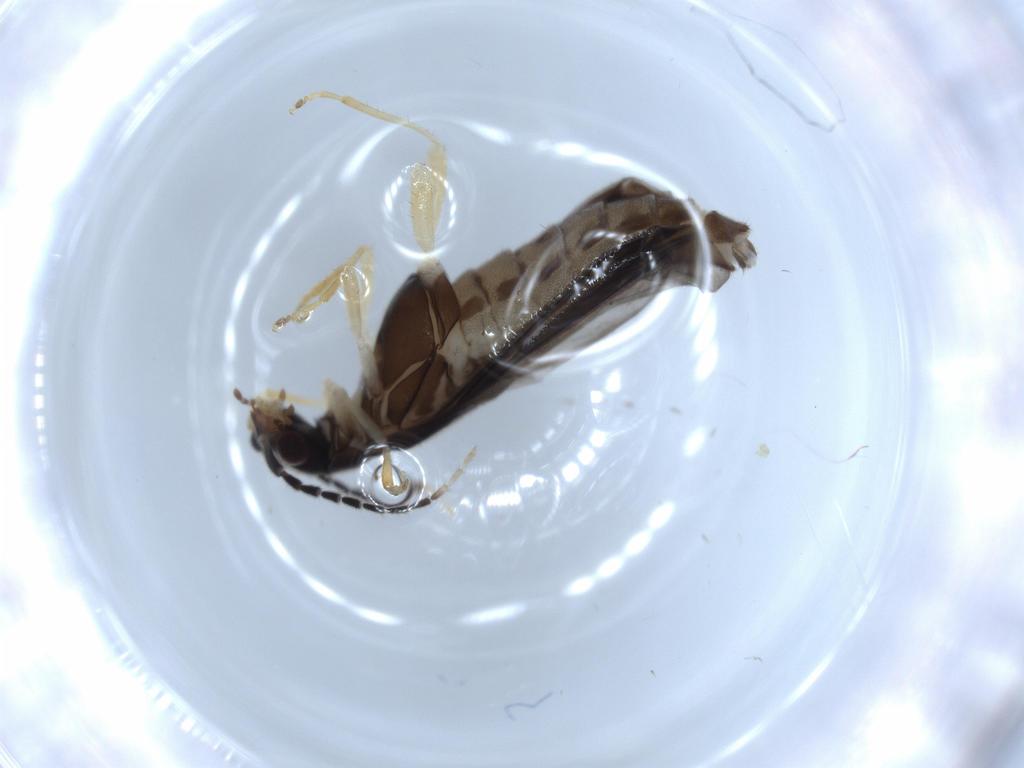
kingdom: Animalia
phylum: Arthropoda
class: Insecta
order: Coleoptera
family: Cantharidae
